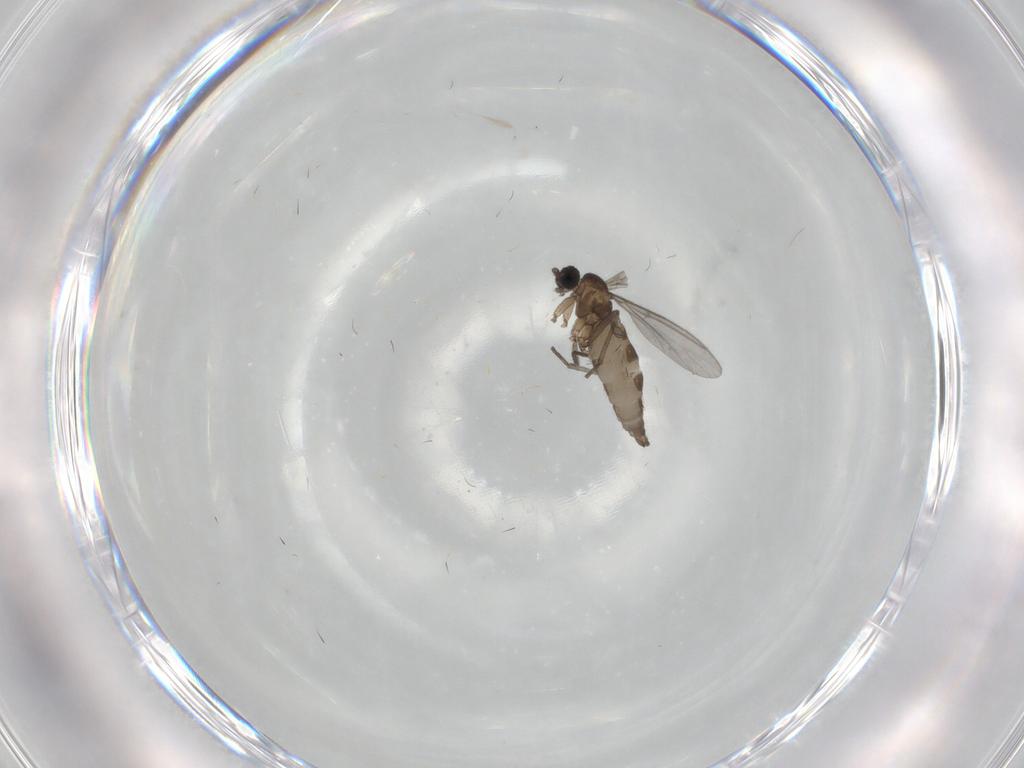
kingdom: Animalia
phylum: Arthropoda
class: Insecta
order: Diptera
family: Sciaridae
